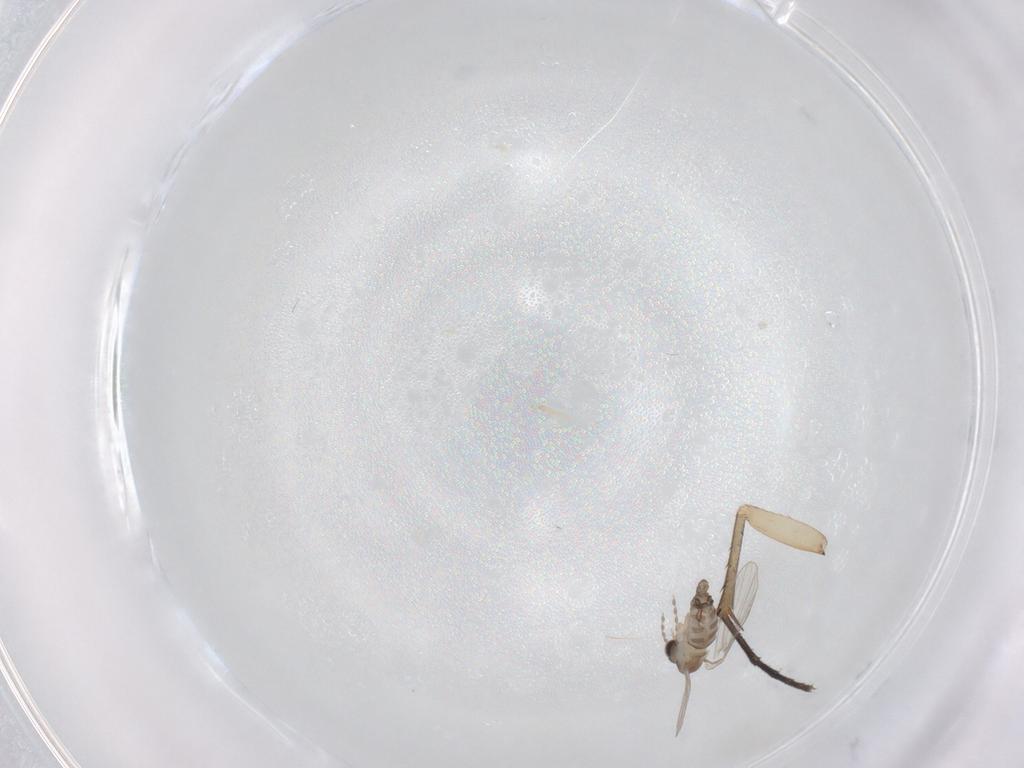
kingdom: Animalia
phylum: Arthropoda
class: Insecta
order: Diptera
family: Mycetophilidae
